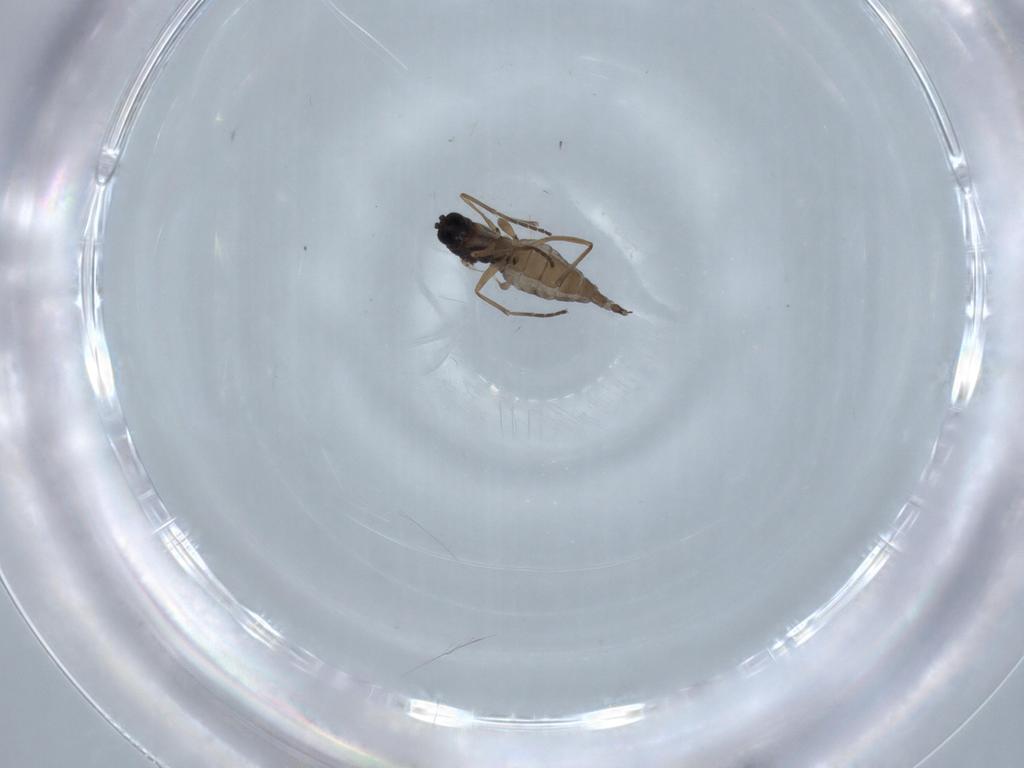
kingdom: Animalia
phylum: Arthropoda
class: Insecta
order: Diptera
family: Sciaridae
